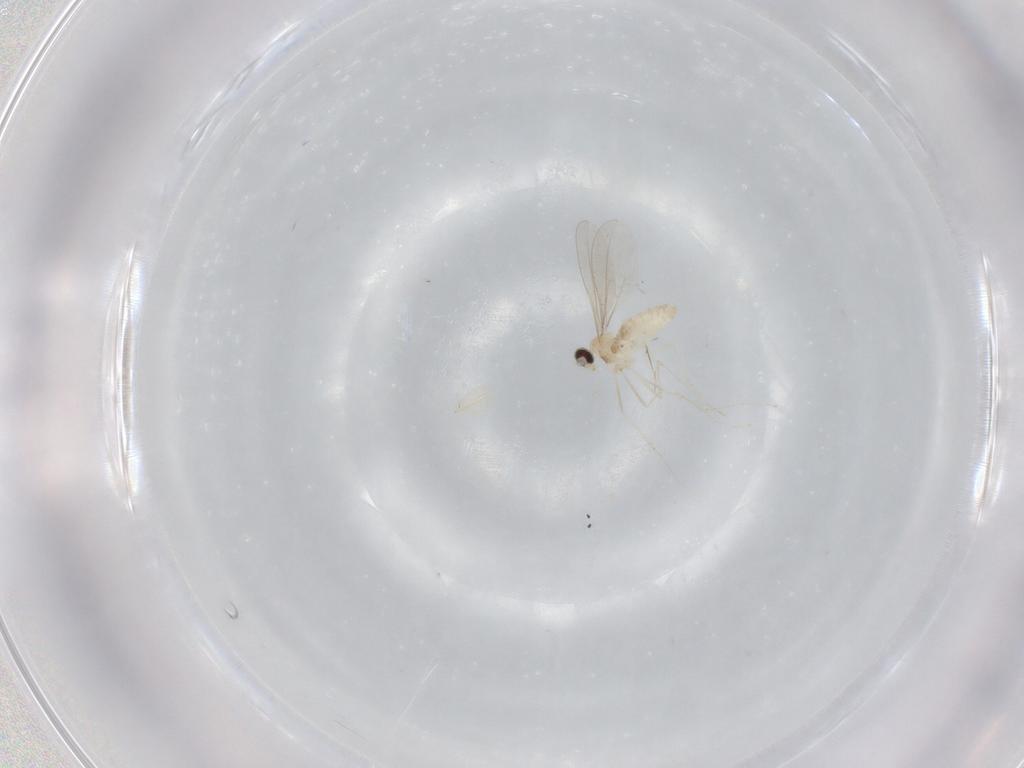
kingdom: Animalia
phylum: Arthropoda
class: Insecta
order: Diptera
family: Cecidomyiidae
